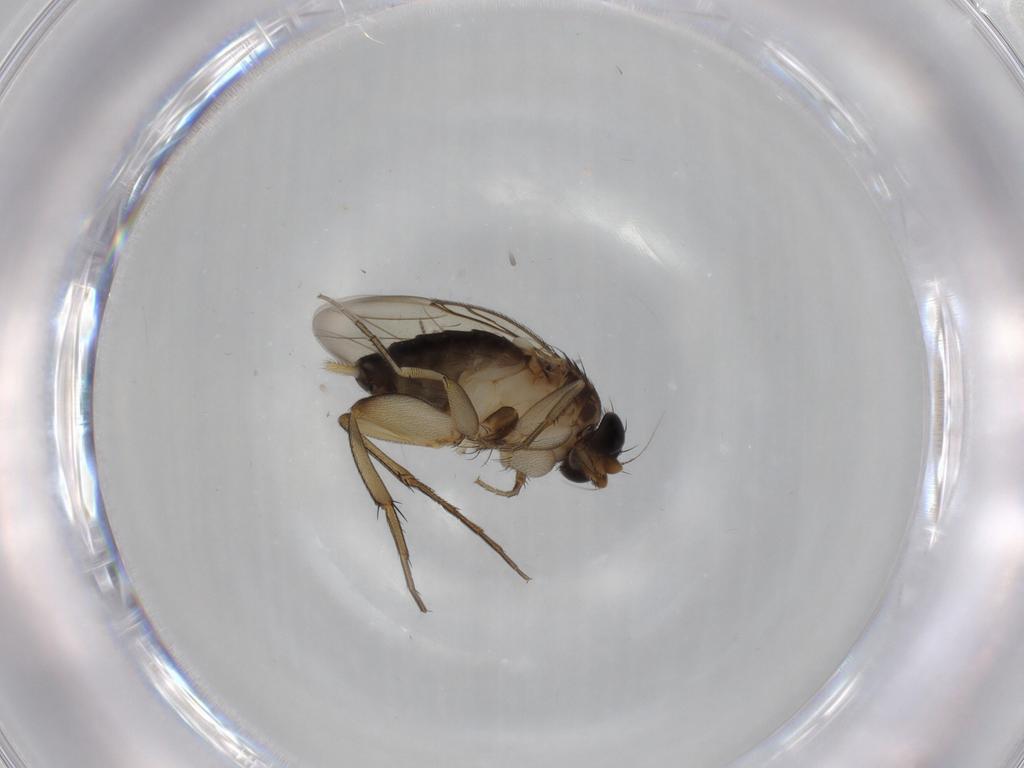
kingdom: Animalia
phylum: Arthropoda
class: Insecta
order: Diptera
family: Phoridae
